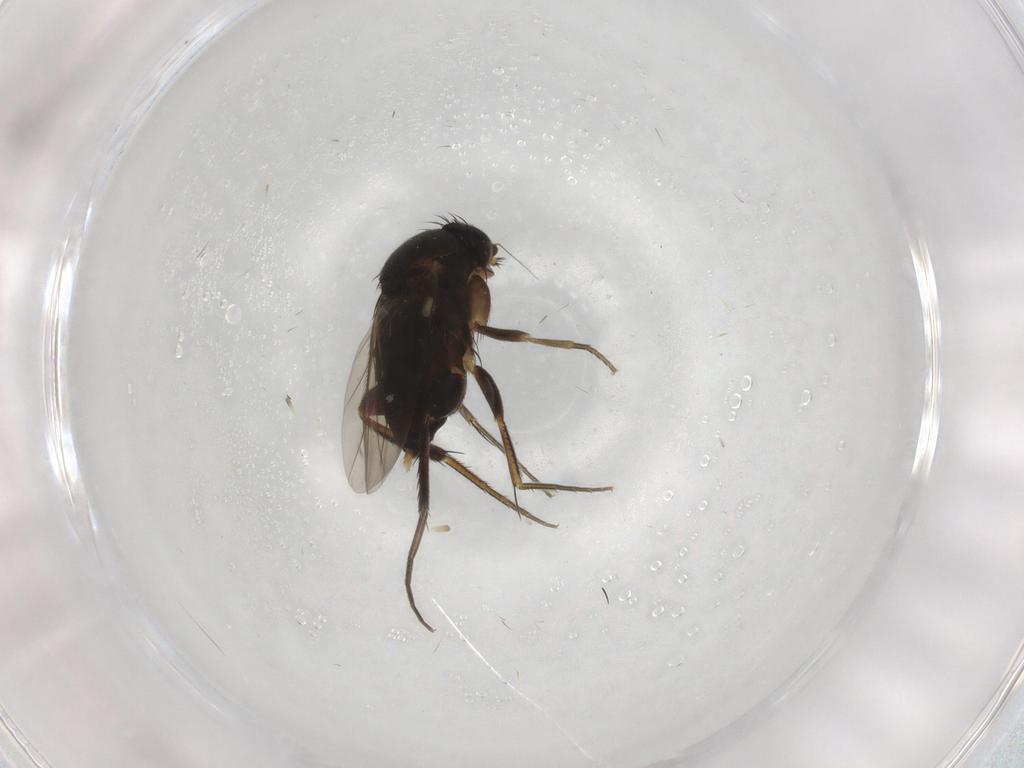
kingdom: Animalia
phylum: Arthropoda
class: Insecta
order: Diptera
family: Phoridae
